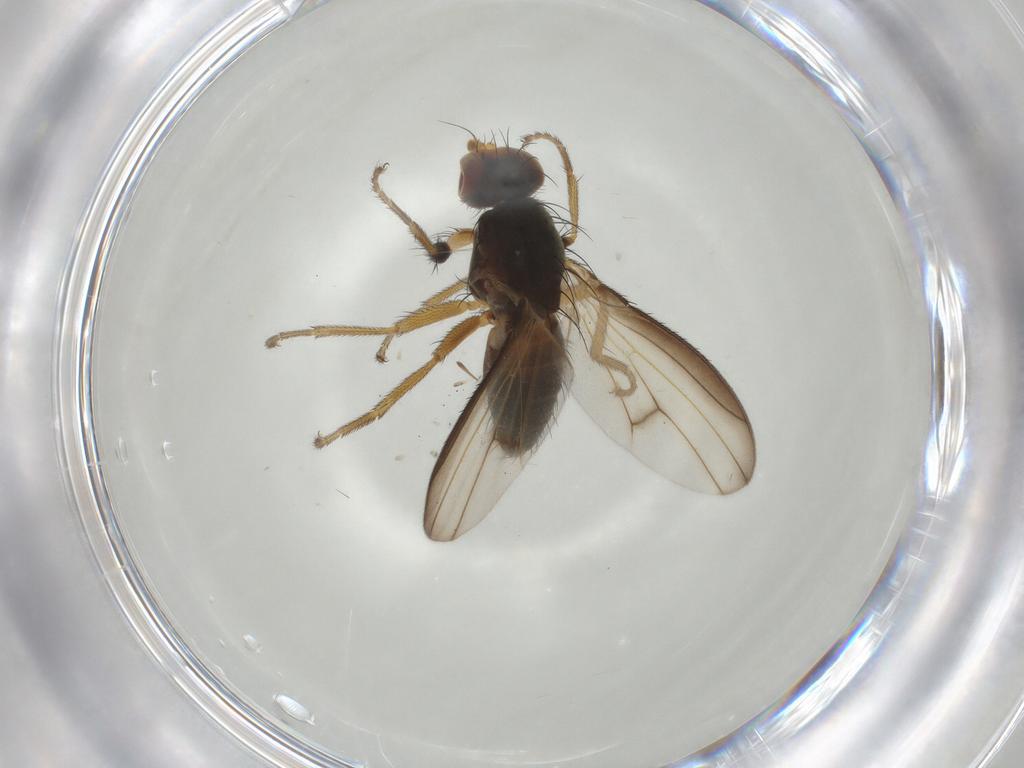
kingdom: Animalia
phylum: Arthropoda
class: Insecta
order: Diptera
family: Heleomyzidae
